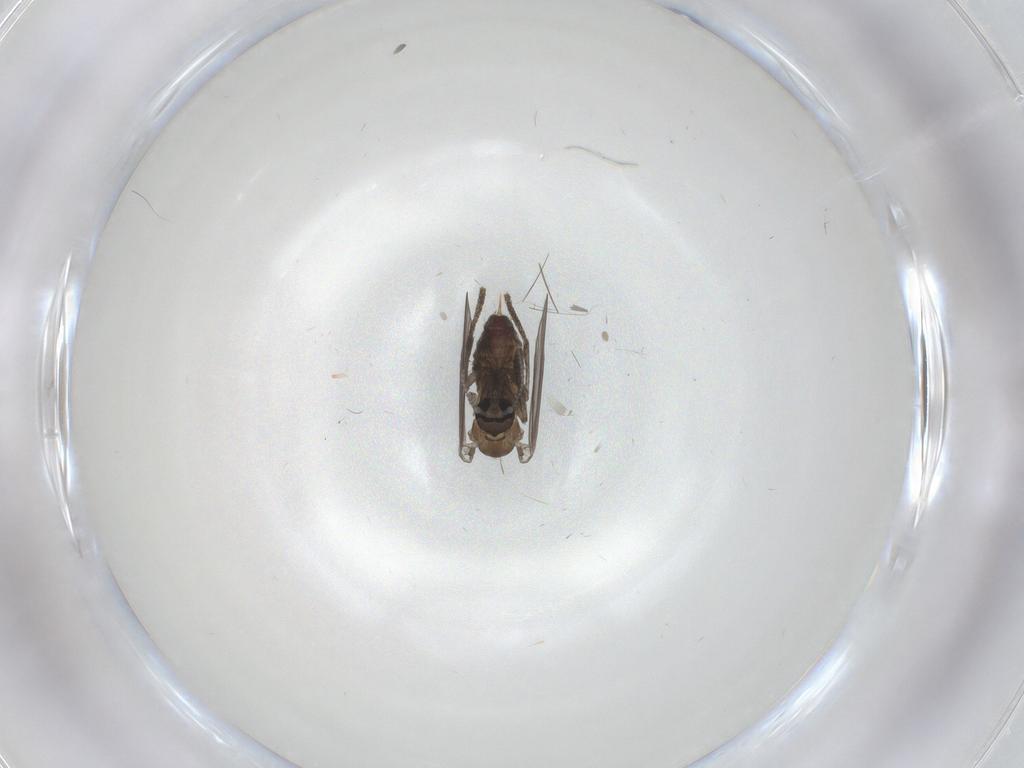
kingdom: Animalia
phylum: Arthropoda
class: Insecta
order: Diptera
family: Psychodidae
